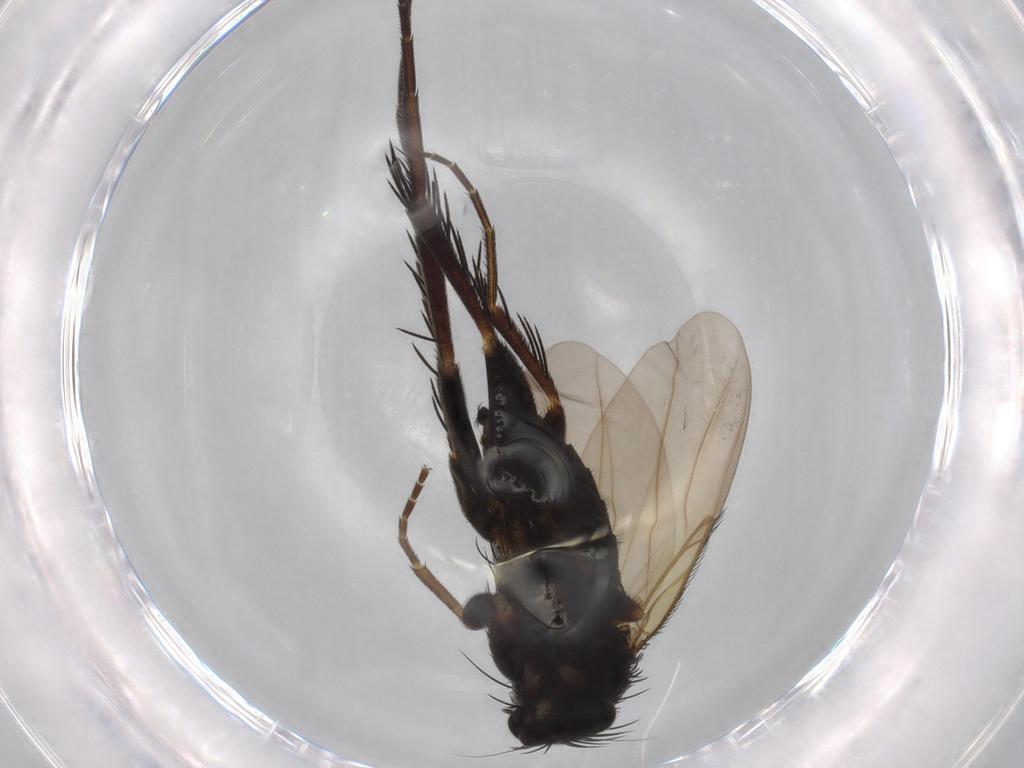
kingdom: Animalia
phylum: Arthropoda
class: Insecta
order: Diptera
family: Phoridae
